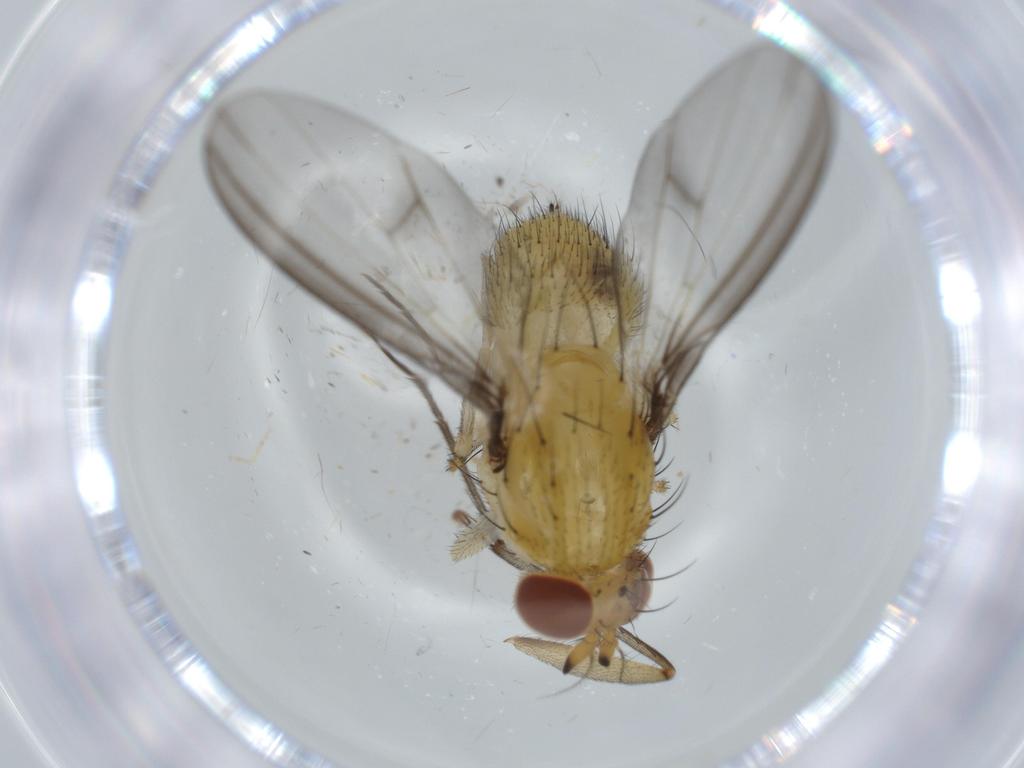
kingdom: Animalia
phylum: Arthropoda
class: Insecta
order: Diptera
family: Lauxaniidae
